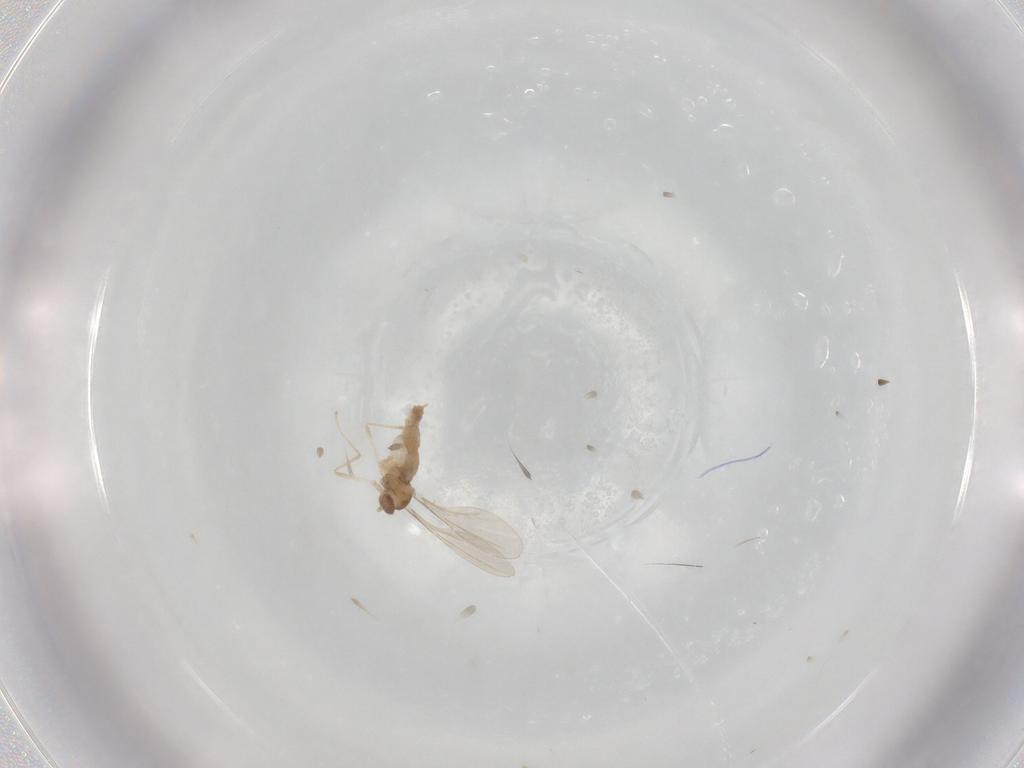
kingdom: Animalia
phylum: Arthropoda
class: Insecta
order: Diptera
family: Cecidomyiidae
